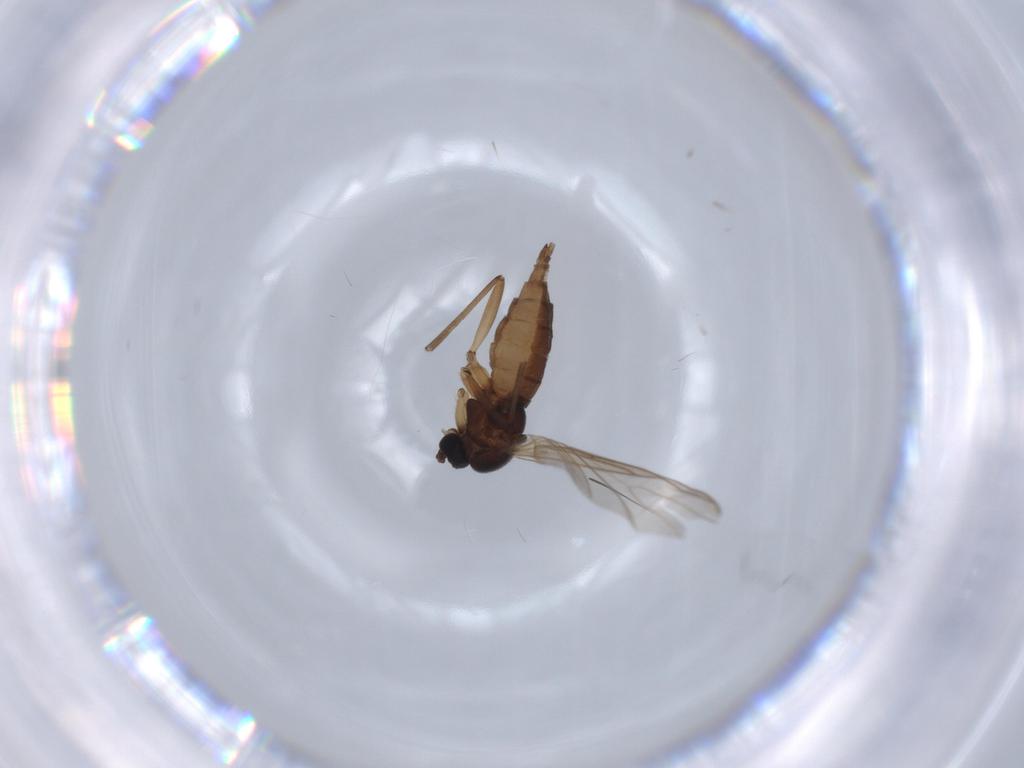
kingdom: Animalia
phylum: Arthropoda
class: Insecta
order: Diptera
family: Sciaridae
